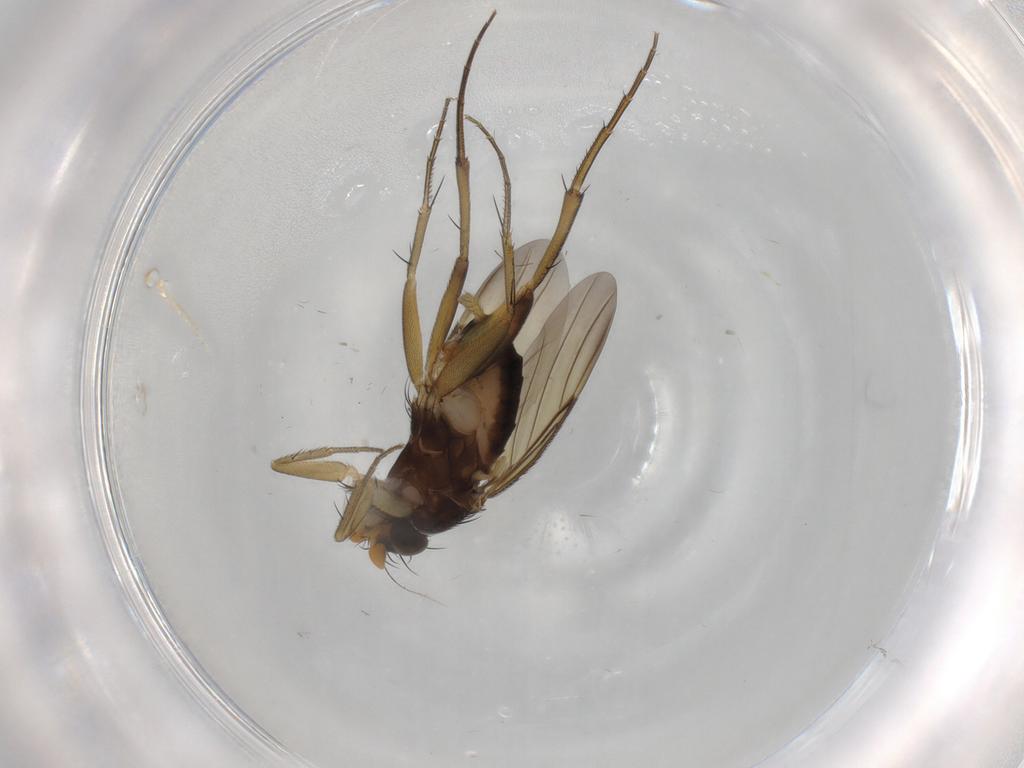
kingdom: Animalia
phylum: Arthropoda
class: Insecta
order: Diptera
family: Phoridae
